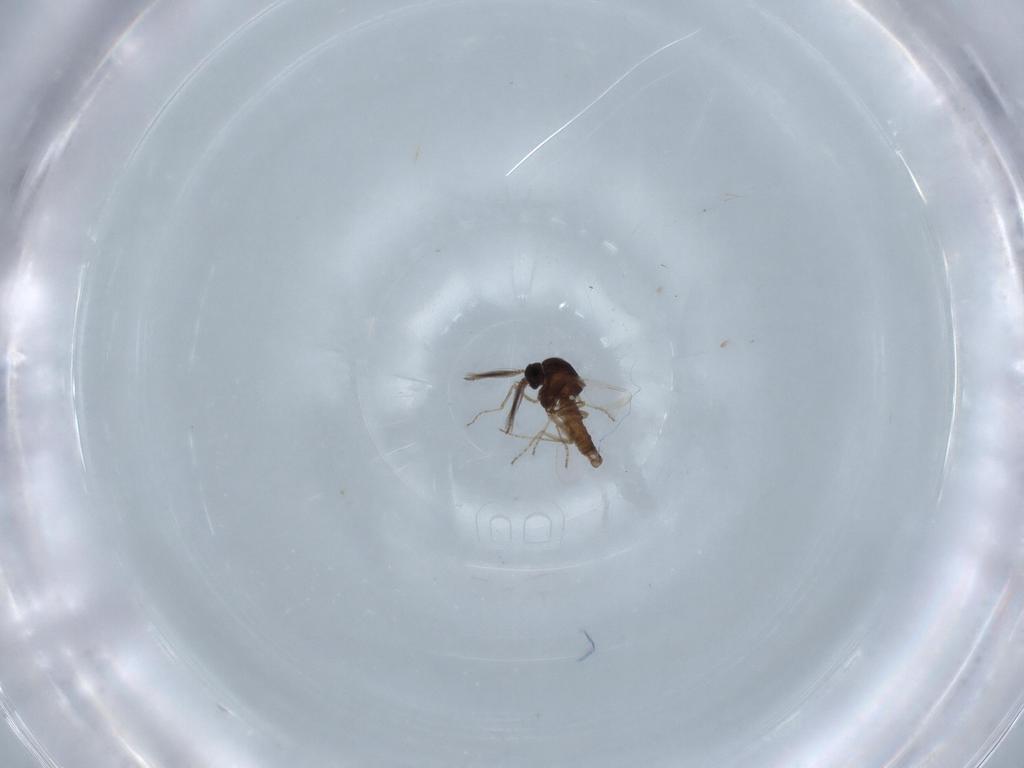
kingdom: Animalia
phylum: Arthropoda
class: Insecta
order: Diptera
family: Ceratopogonidae
